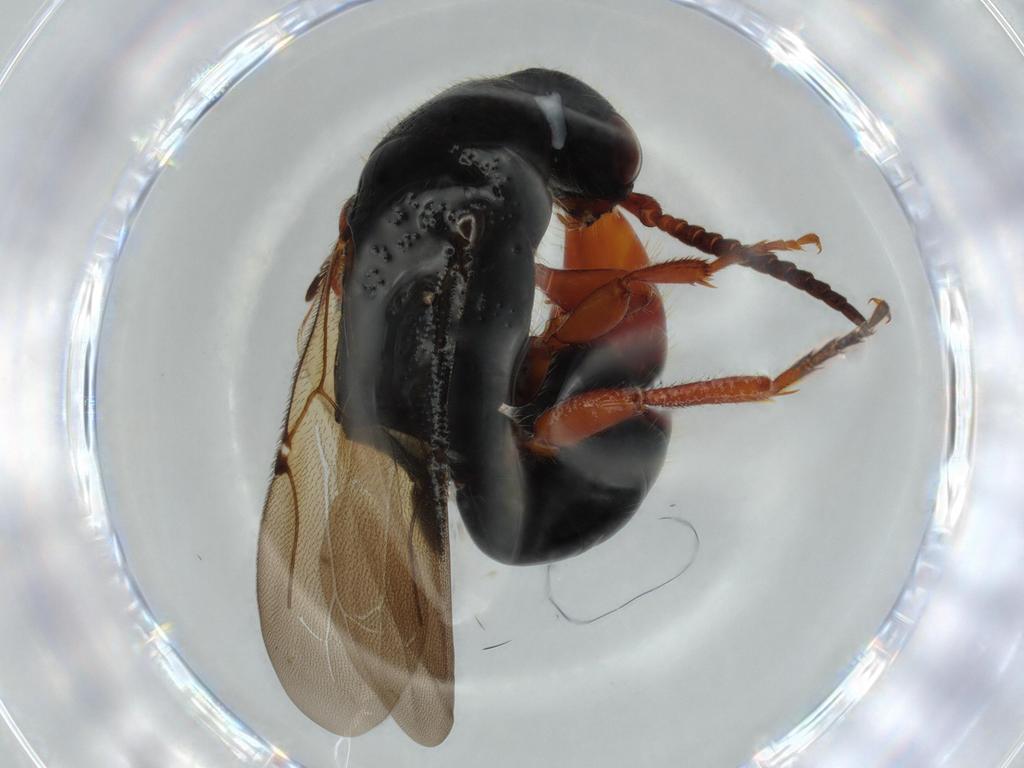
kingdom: Animalia
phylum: Arthropoda
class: Insecta
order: Hymenoptera
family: Bethylidae
